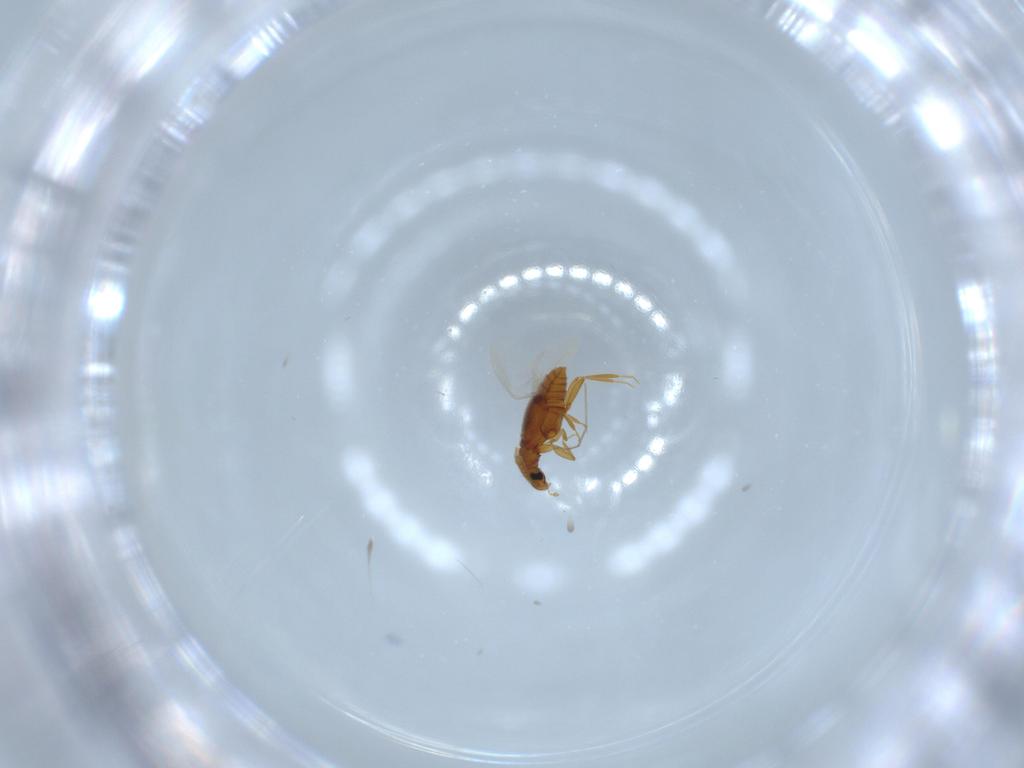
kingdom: Animalia
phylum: Arthropoda
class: Insecta
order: Coleoptera
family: Staphylinidae
